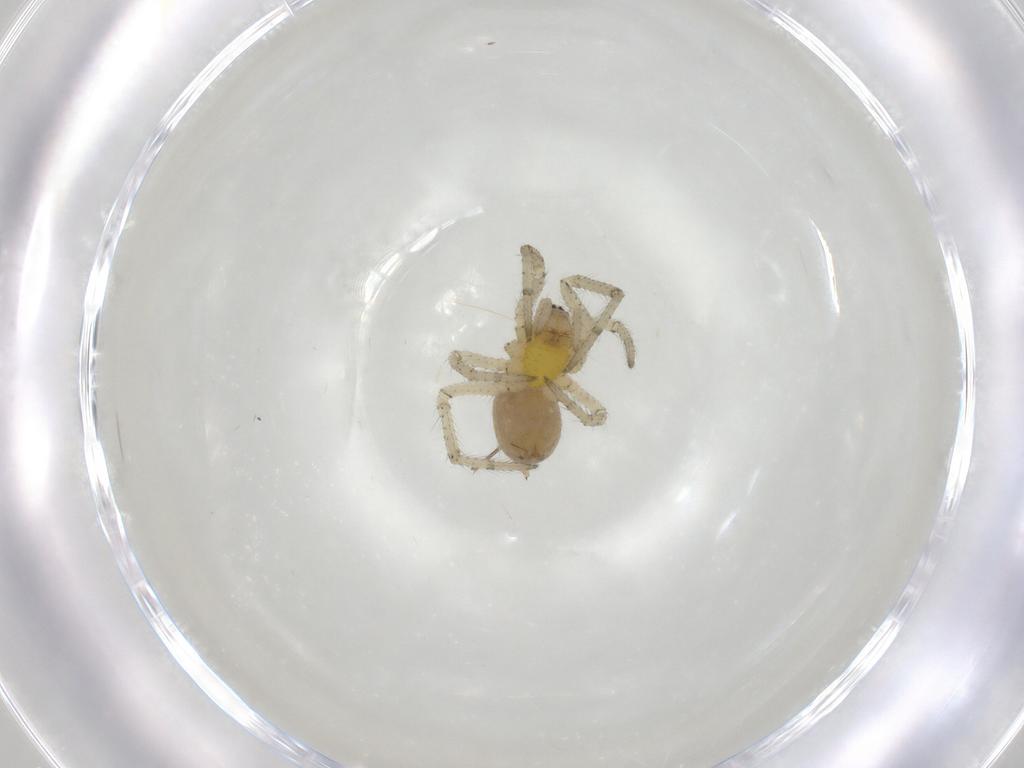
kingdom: Animalia
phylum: Arthropoda
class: Arachnida
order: Araneae
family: Theridiidae
